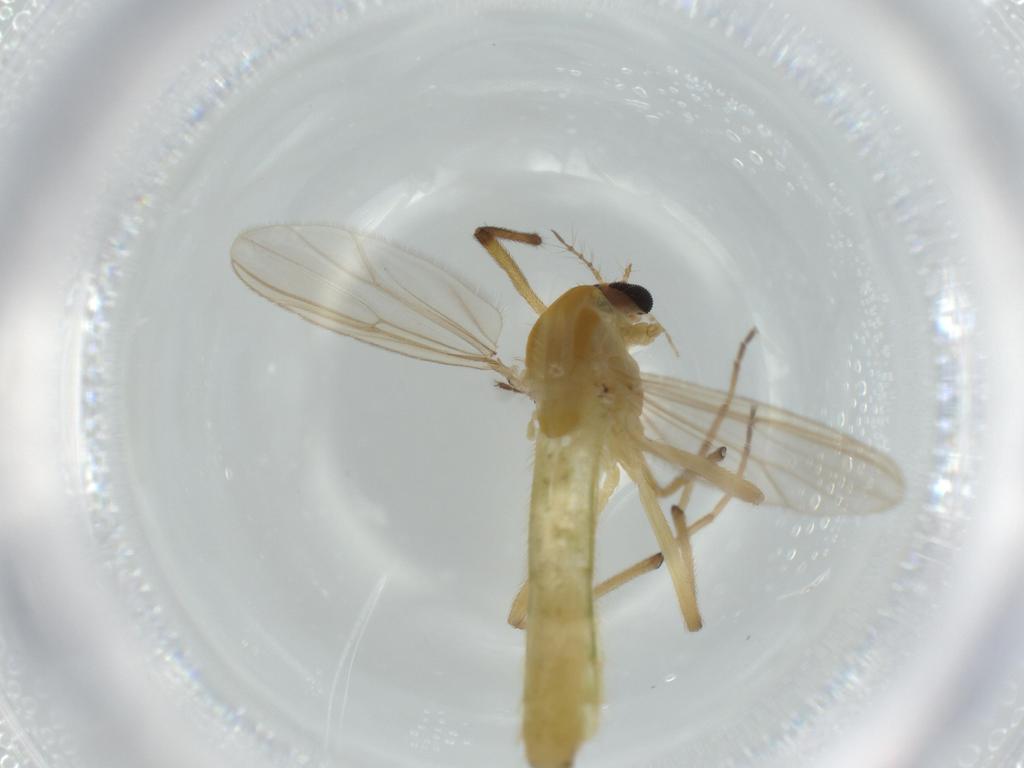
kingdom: Animalia
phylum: Arthropoda
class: Insecta
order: Diptera
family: Chironomidae
